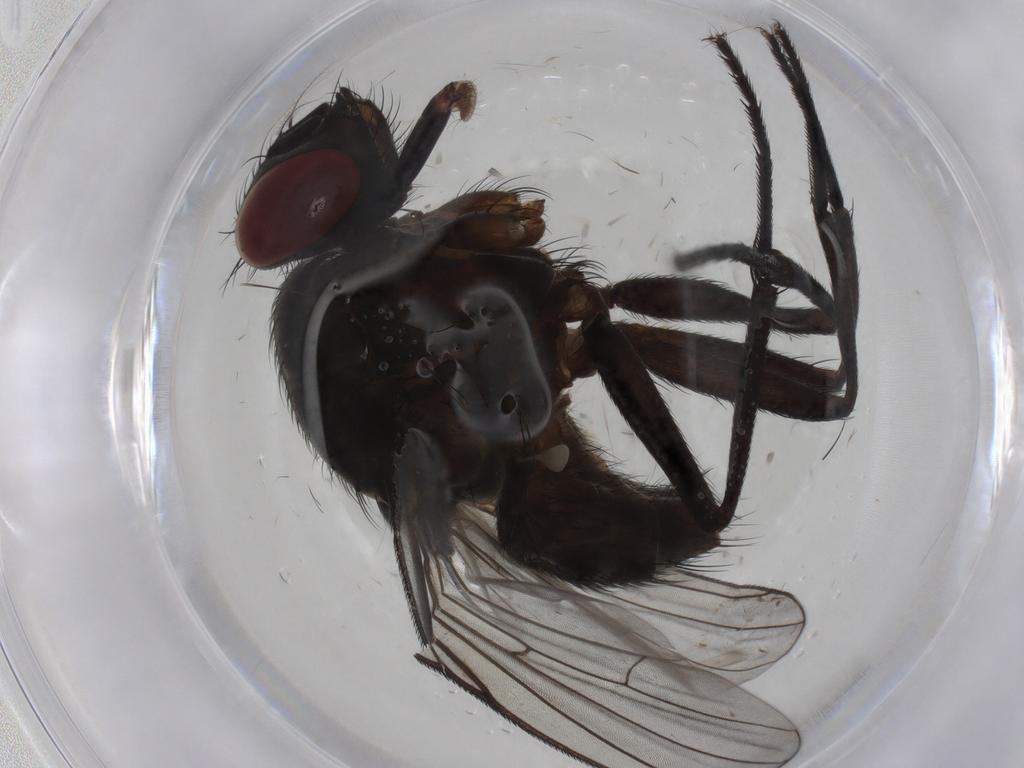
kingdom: Animalia
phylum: Arthropoda
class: Insecta
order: Diptera
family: Muscidae
